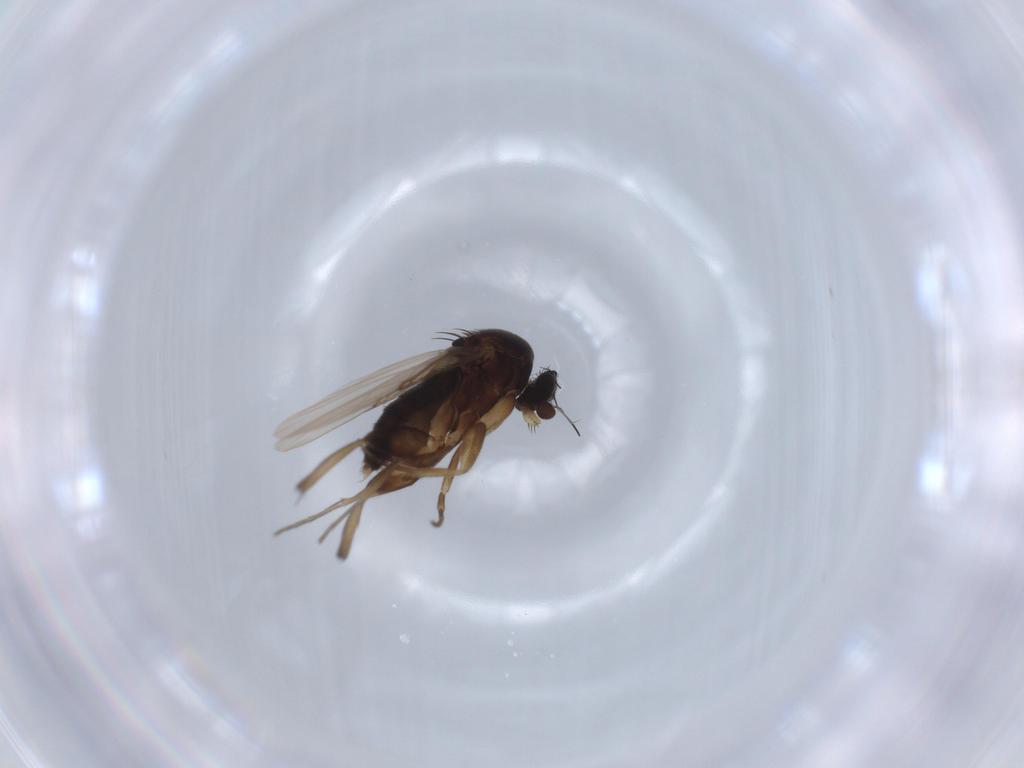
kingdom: Animalia
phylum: Arthropoda
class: Insecta
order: Diptera
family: Phoridae
